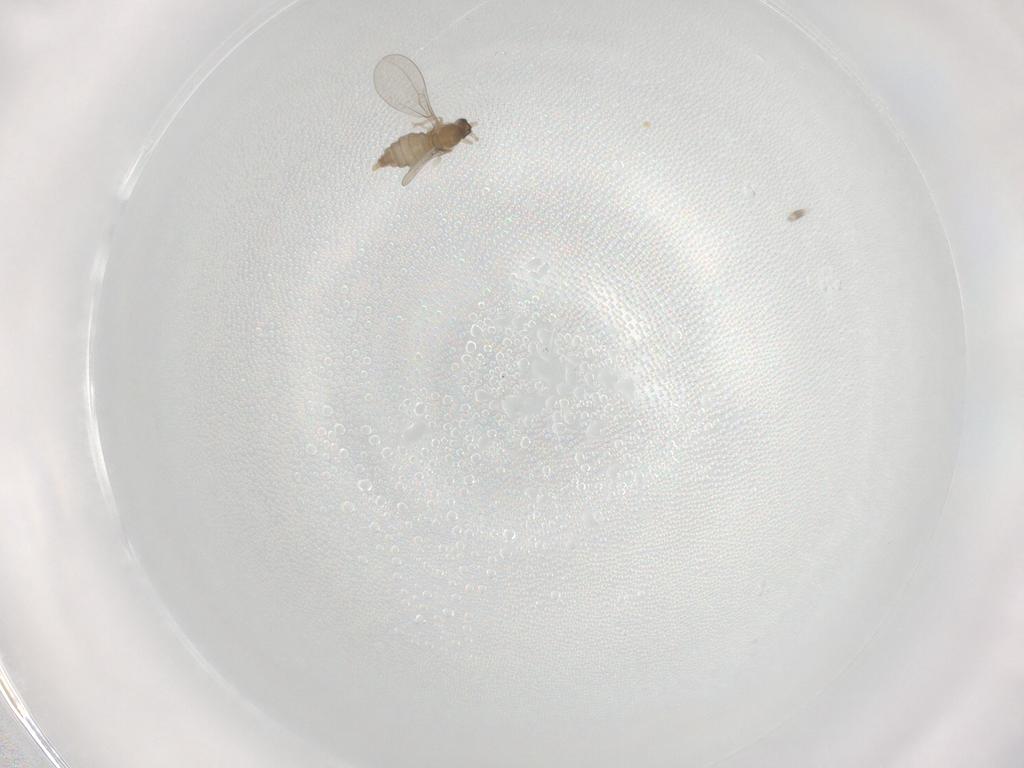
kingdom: Animalia
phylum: Arthropoda
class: Insecta
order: Diptera
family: Cecidomyiidae
